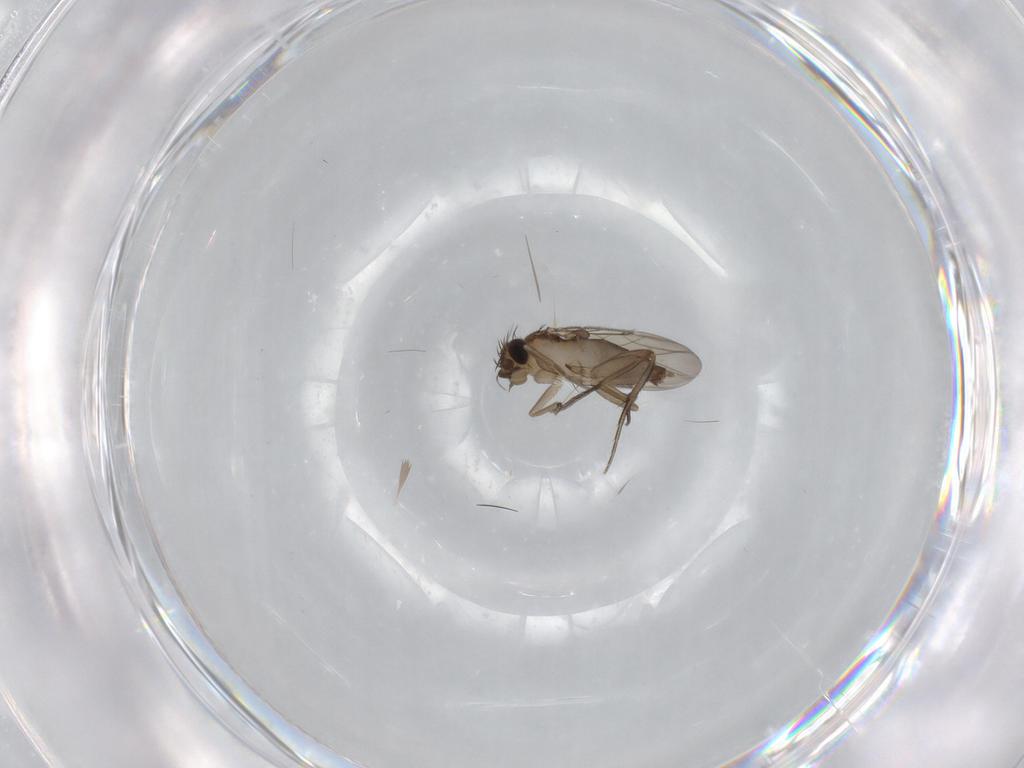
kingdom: Animalia
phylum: Arthropoda
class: Insecta
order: Diptera
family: Phoridae
